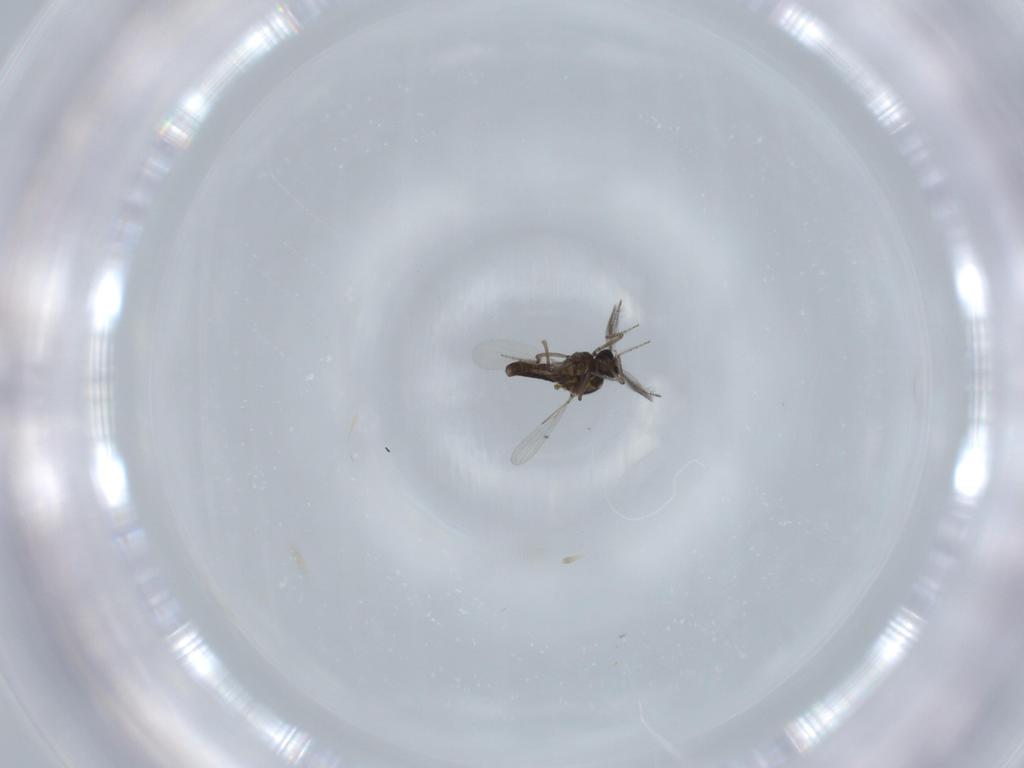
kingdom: Animalia
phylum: Arthropoda
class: Insecta
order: Diptera
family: Ceratopogonidae
